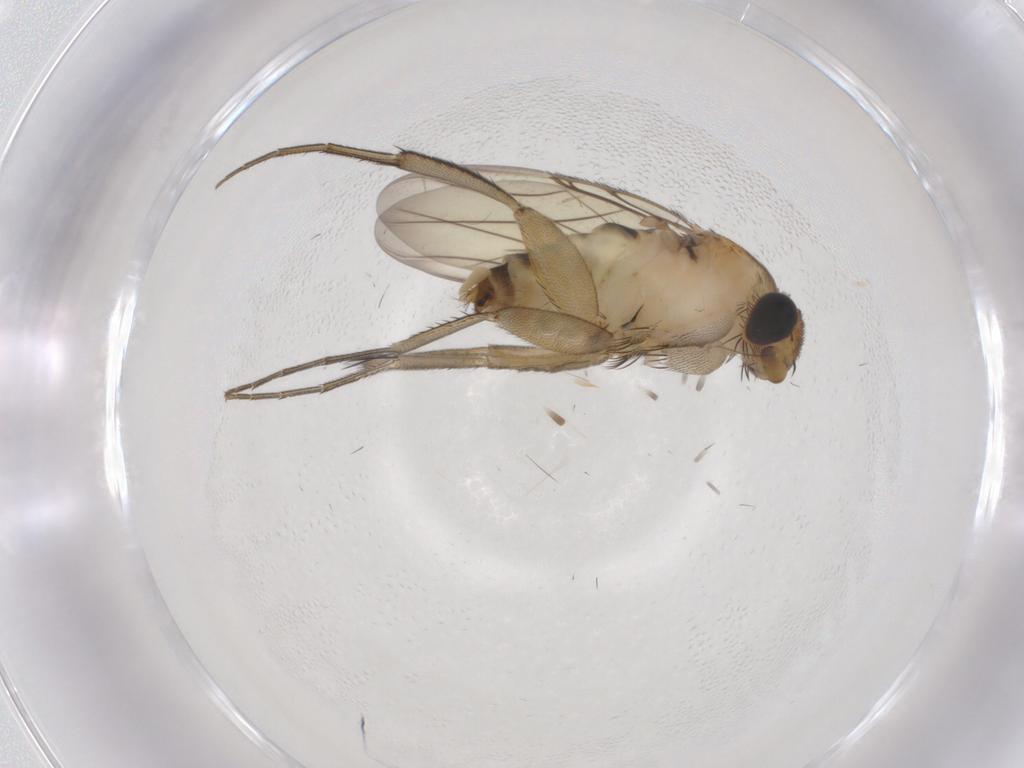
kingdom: Animalia
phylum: Arthropoda
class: Insecta
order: Diptera
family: Phoridae
